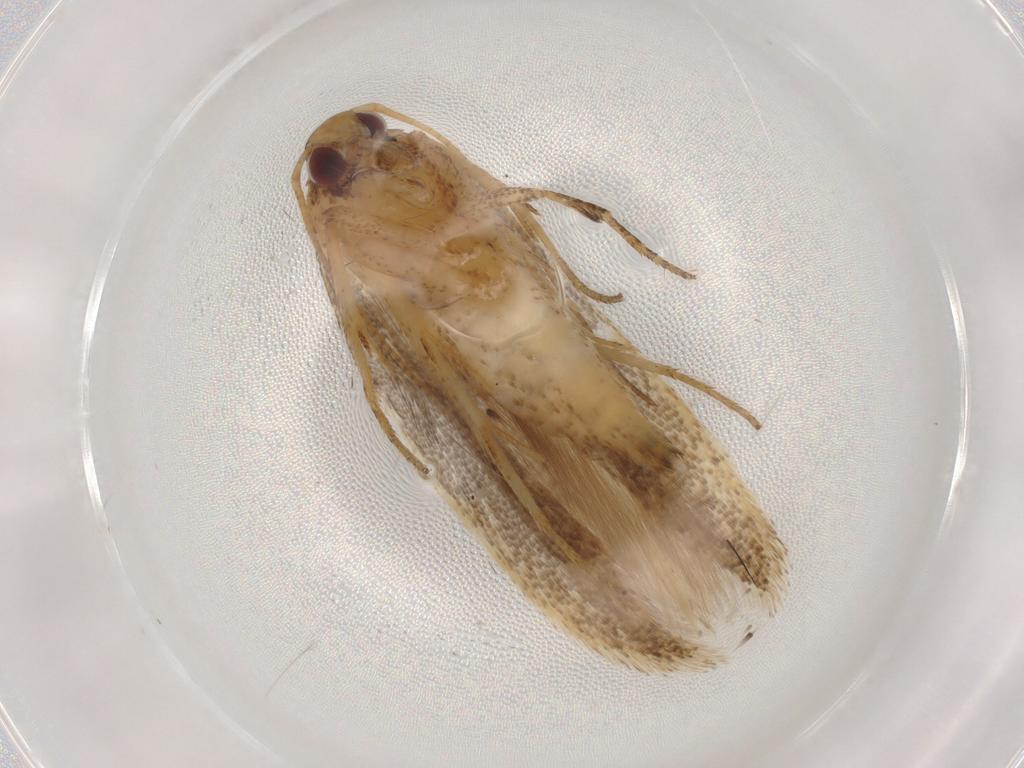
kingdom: Animalia
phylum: Arthropoda
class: Insecta
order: Lepidoptera
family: Gelechiidae
